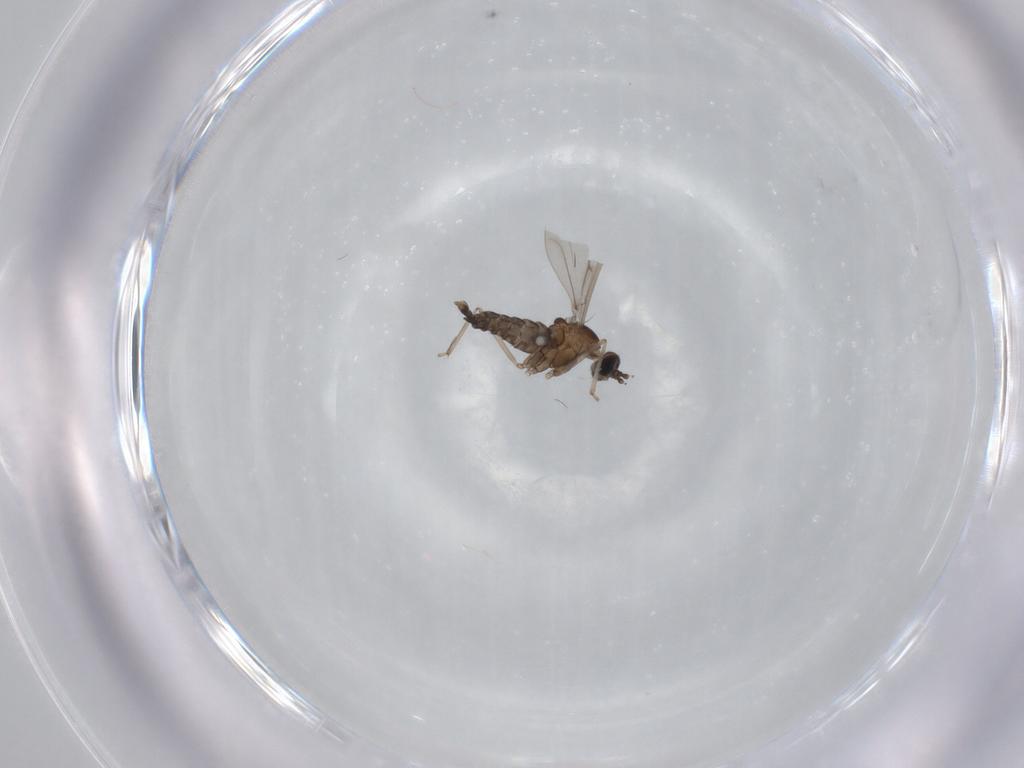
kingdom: Animalia
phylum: Arthropoda
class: Insecta
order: Diptera
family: Cecidomyiidae
